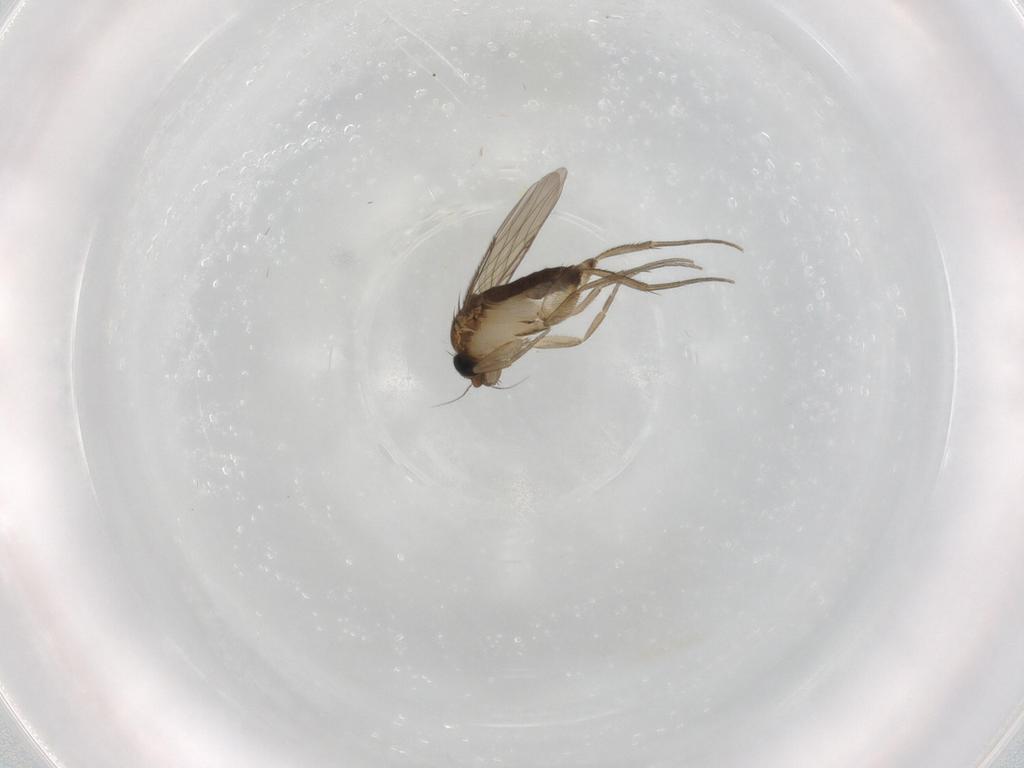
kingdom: Animalia
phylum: Arthropoda
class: Insecta
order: Diptera
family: Phoridae
